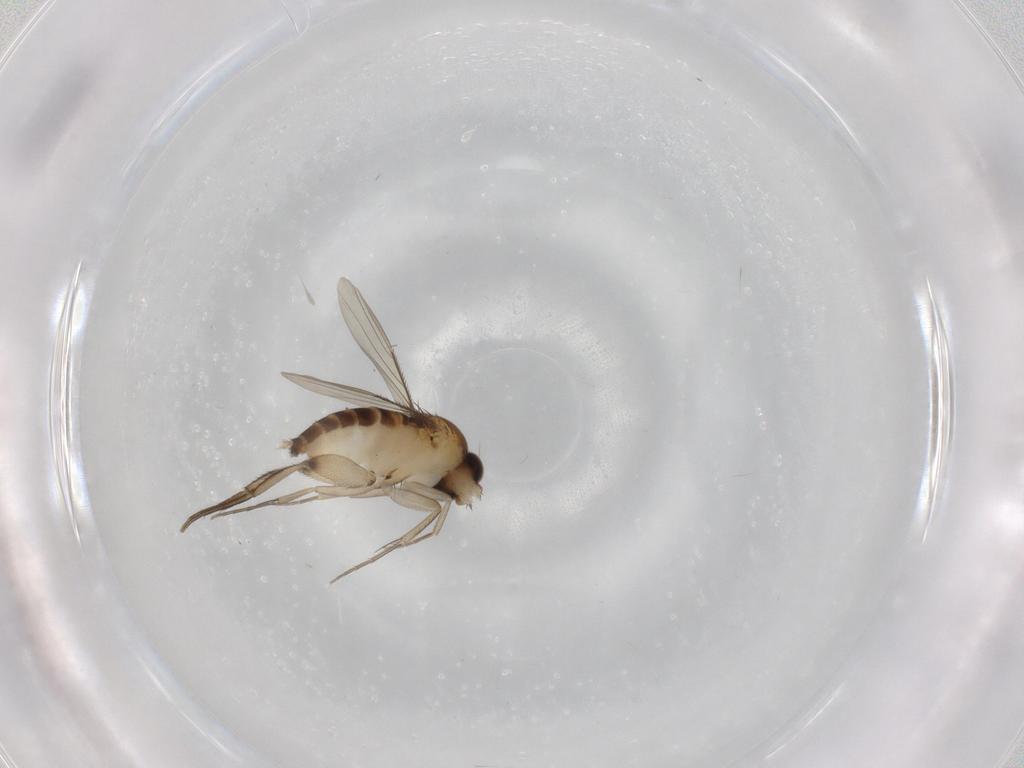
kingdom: Animalia
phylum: Arthropoda
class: Insecta
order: Diptera
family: Phoridae
